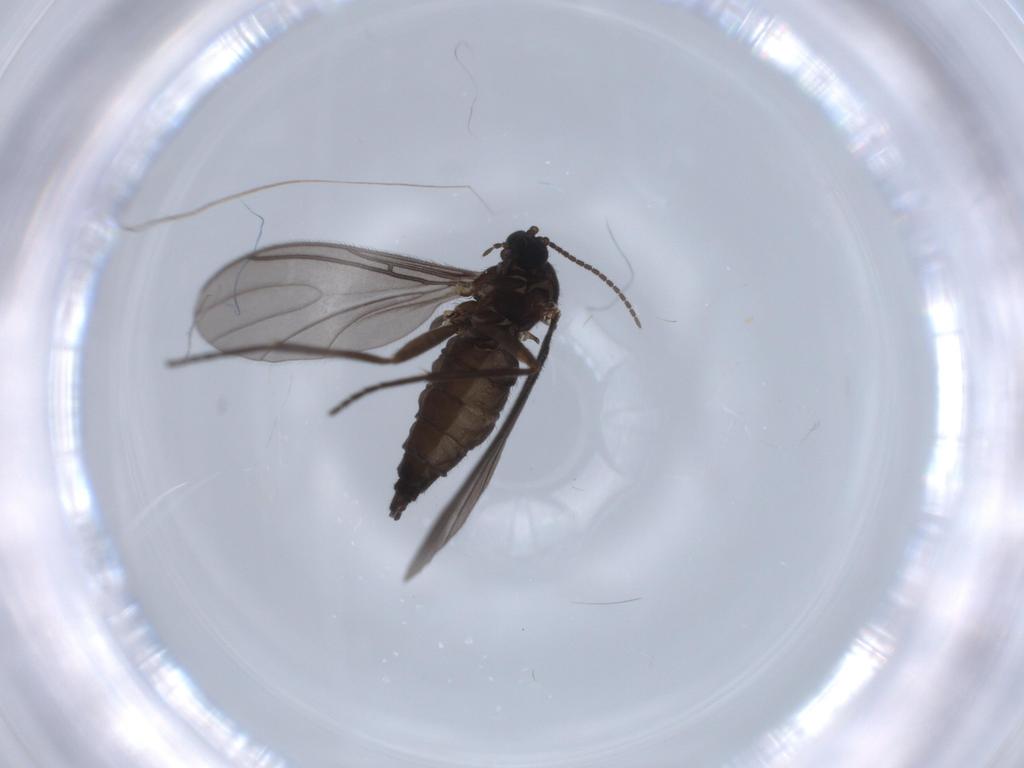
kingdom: Animalia
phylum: Arthropoda
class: Insecta
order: Diptera
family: Sciaridae
